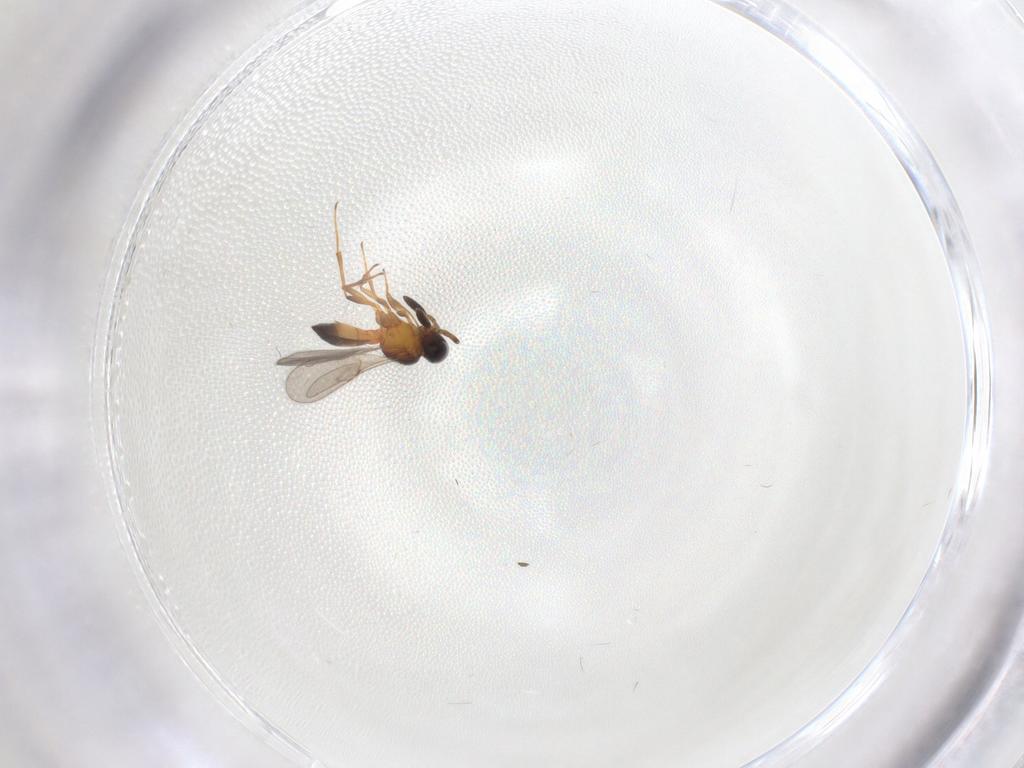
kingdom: Animalia
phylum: Arthropoda
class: Insecta
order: Hymenoptera
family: Scelionidae
